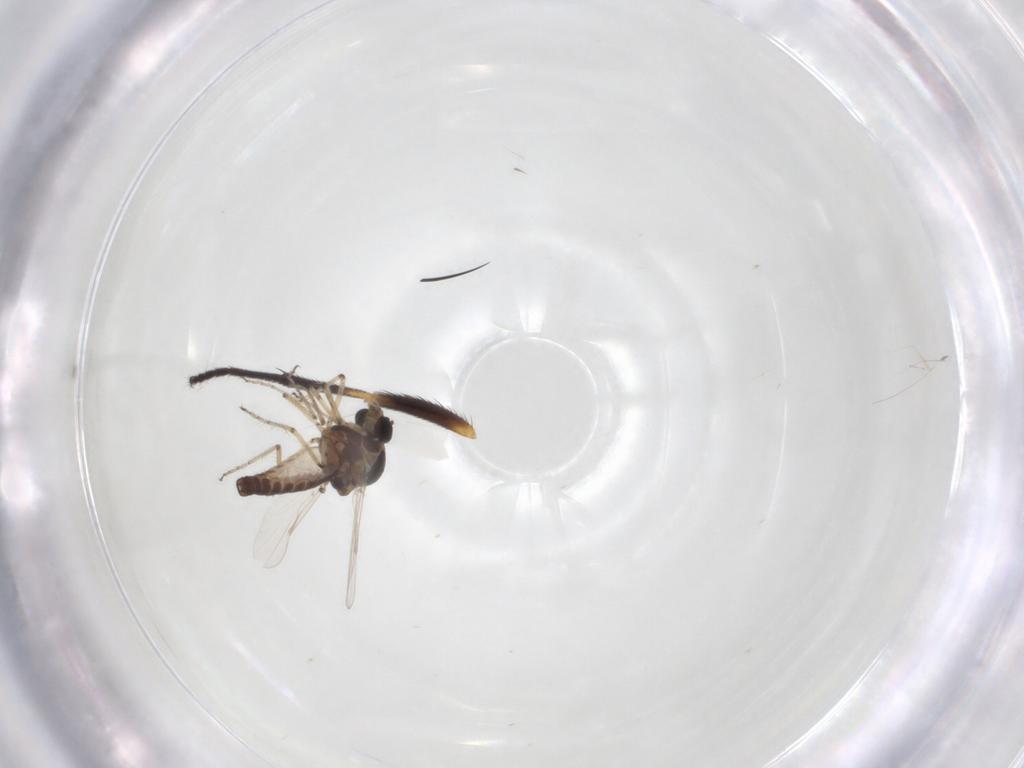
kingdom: Animalia
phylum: Arthropoda
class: Insecta
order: Diptera
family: Ceratopogonidae
